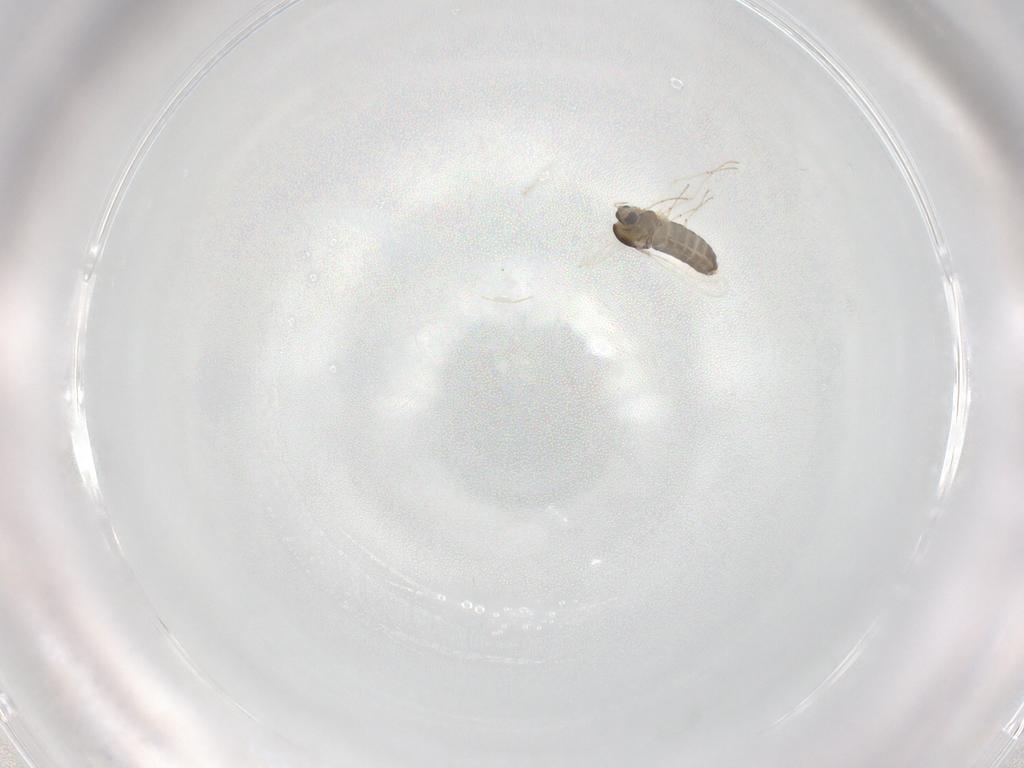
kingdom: Animalia
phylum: Arthropoda
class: Insecta
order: Diptera
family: Chironomidae
